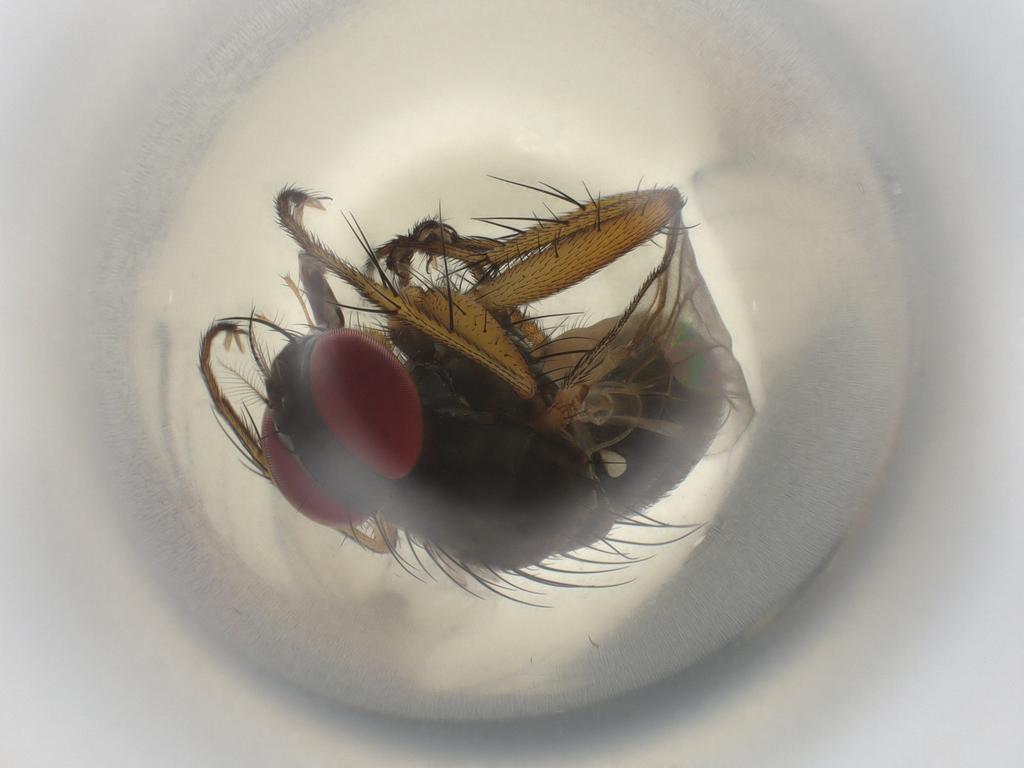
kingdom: Animalia
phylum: Arthropoda
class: Insecta
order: Diptera
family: Muscidae
